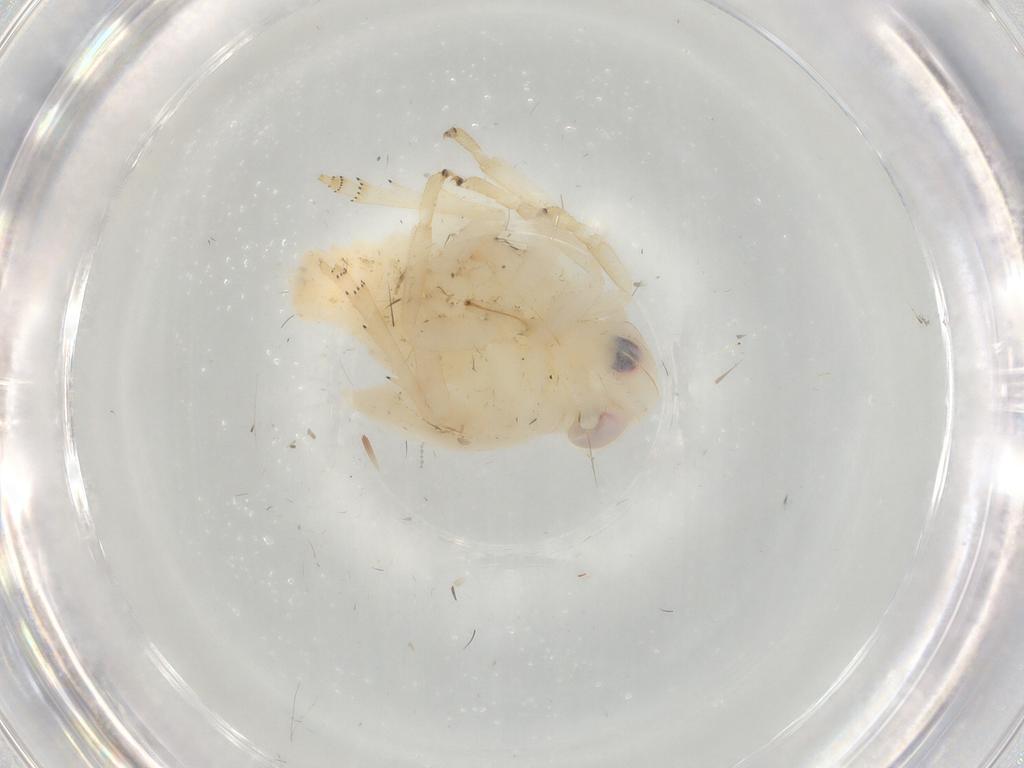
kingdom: Animalia
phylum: Arthropoda
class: Insecta
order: Hemiptera
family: Nogodinidae
